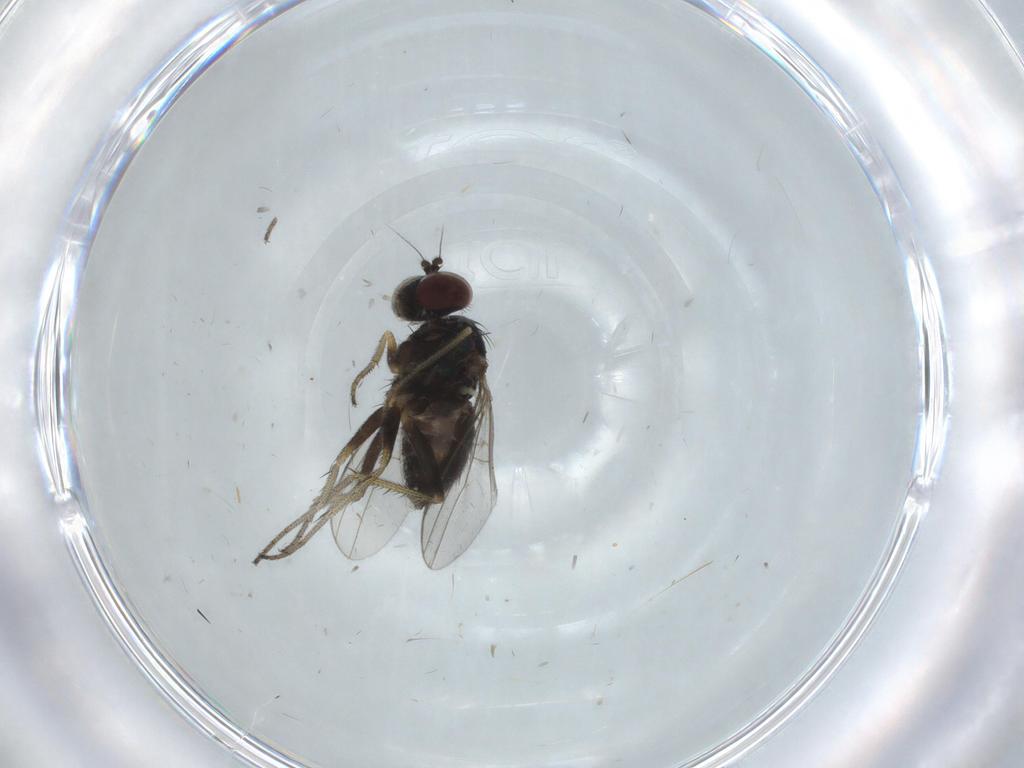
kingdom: Animalia
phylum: Arthropoda
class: Insecta
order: Diptera
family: Dolichopodidae
